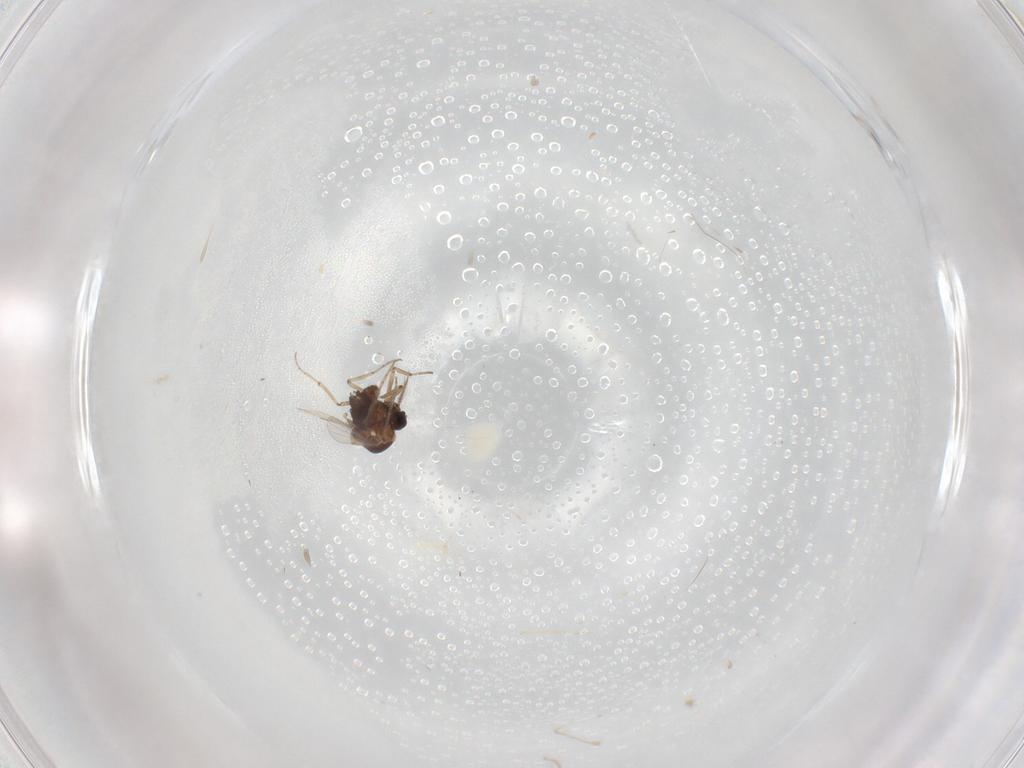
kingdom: Animalia
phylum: Arthropoda
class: Insecta
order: Diptera
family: Ceratopogonidae
